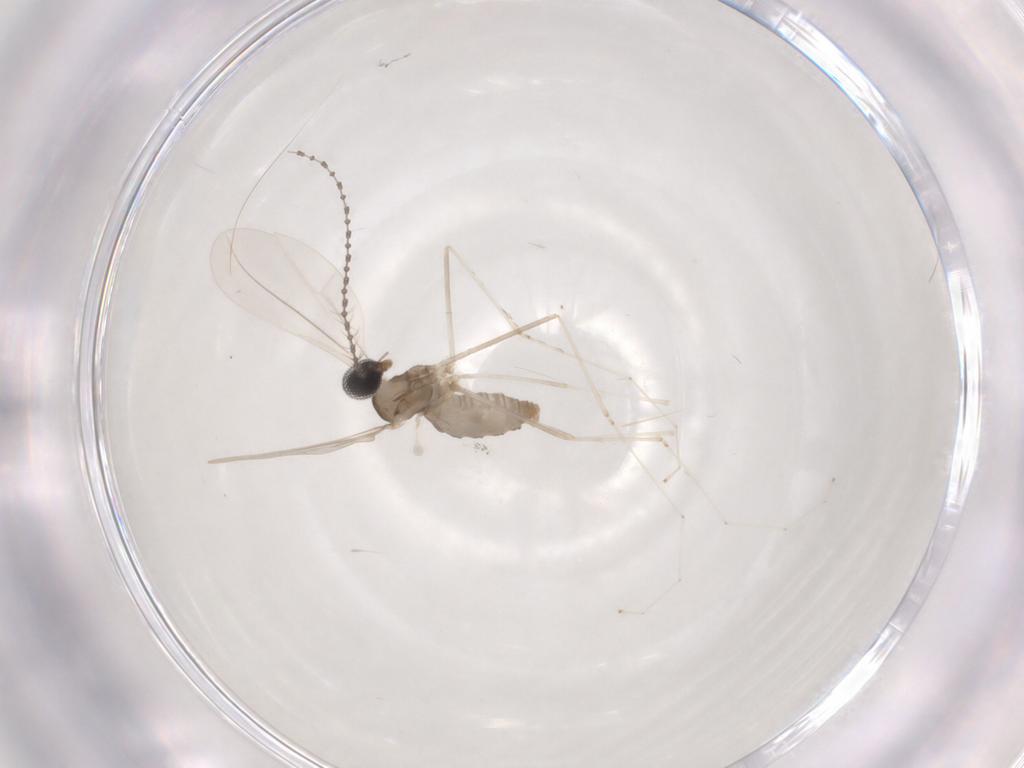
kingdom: Animalia
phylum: Arthropoda
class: Insecta
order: Diptera
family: Cecidomyiidae
